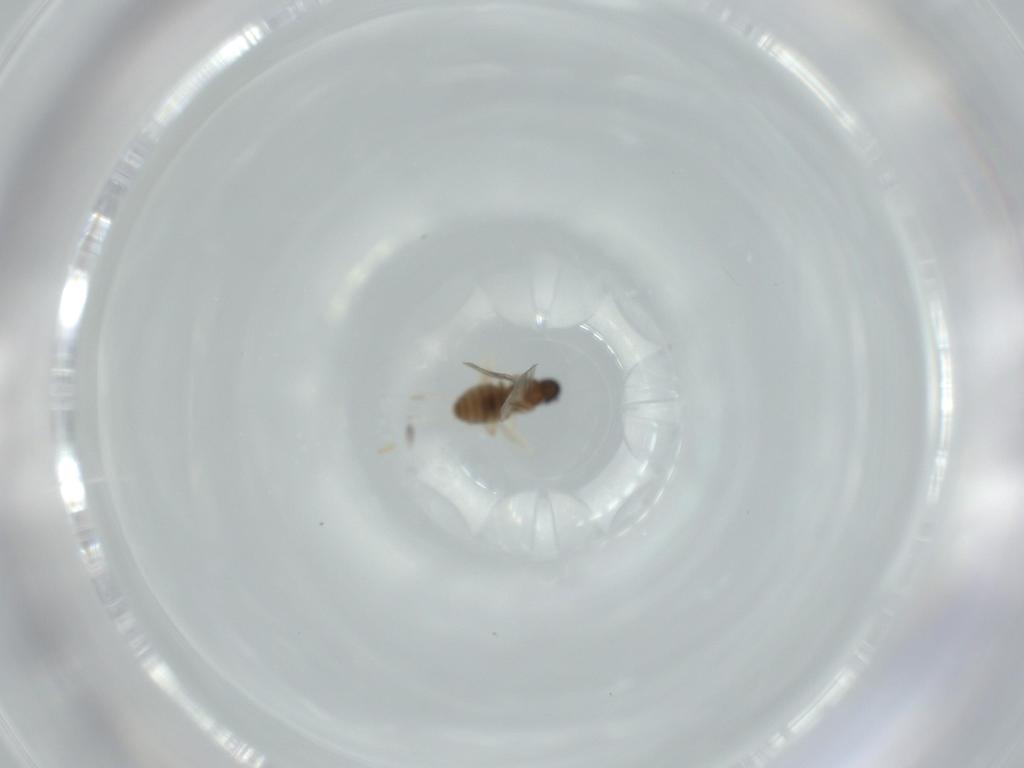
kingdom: Animalia
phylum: Arthropoda
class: Insecta
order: Diptera
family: Cecidomyiidae
